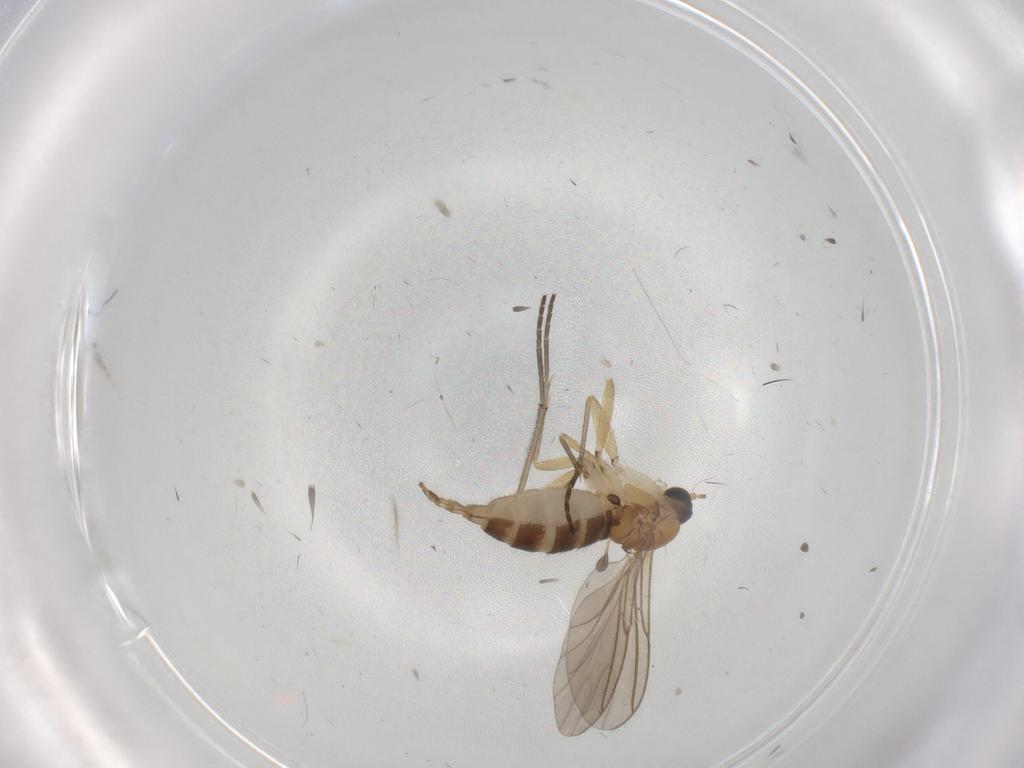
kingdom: Animalia
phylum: Arthropoda
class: Insecta
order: Diptera
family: Sciaridae
